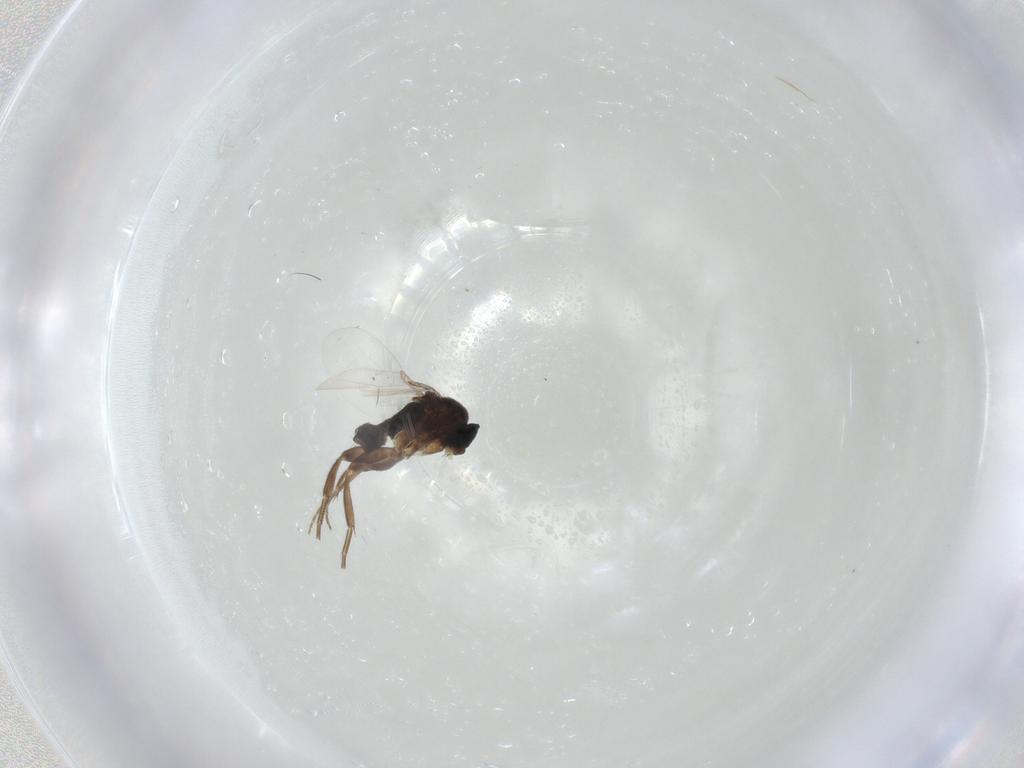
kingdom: Animalia
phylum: Arthropoda
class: Insecta
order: Diptera
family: Phoridae
